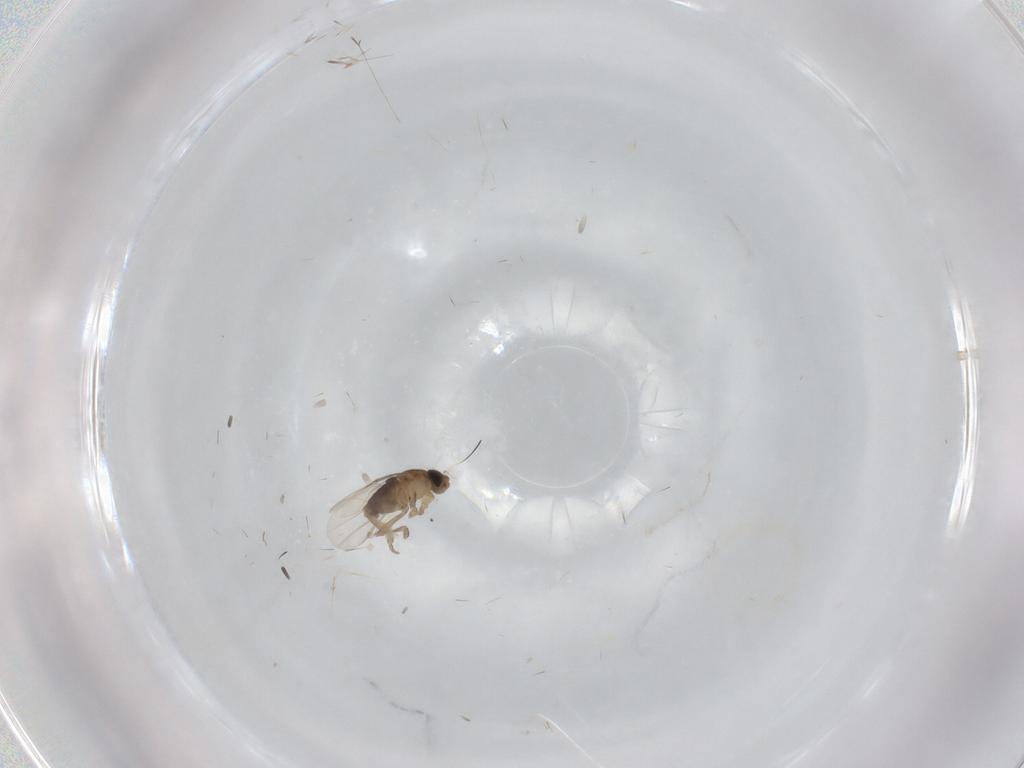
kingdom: Animalia
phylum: Arthropoda
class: Insecta
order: Diptera
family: Phoridae
